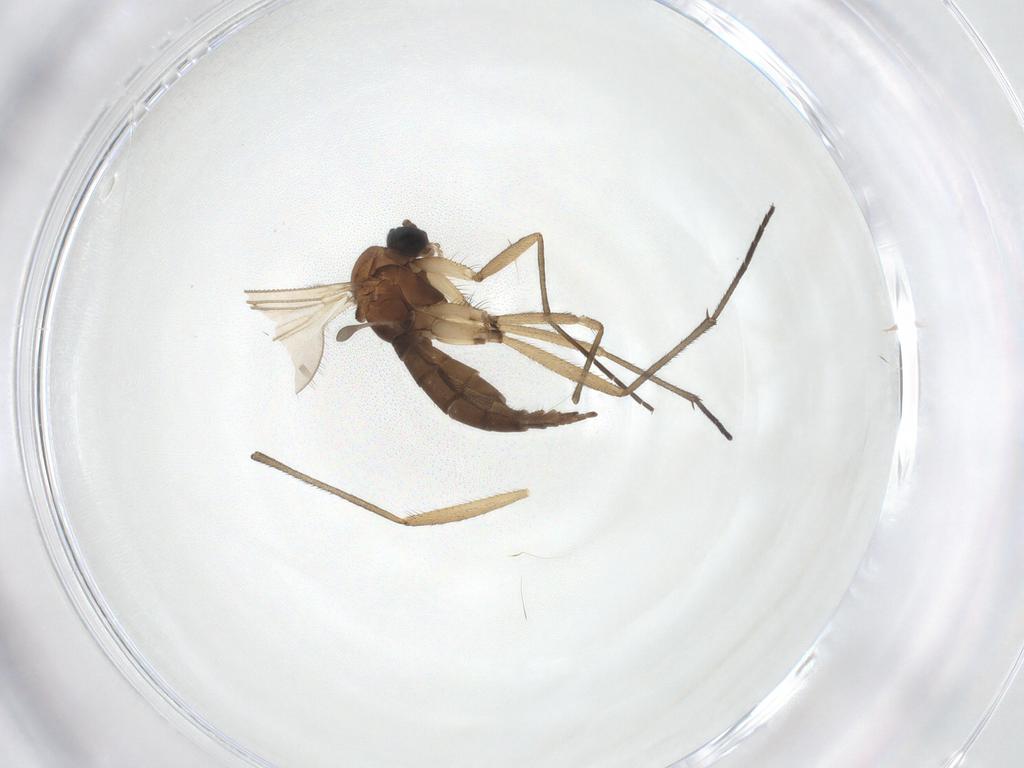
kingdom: Animalia
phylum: Arthropoda
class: Insecta
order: Diptera
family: Sciaridae
